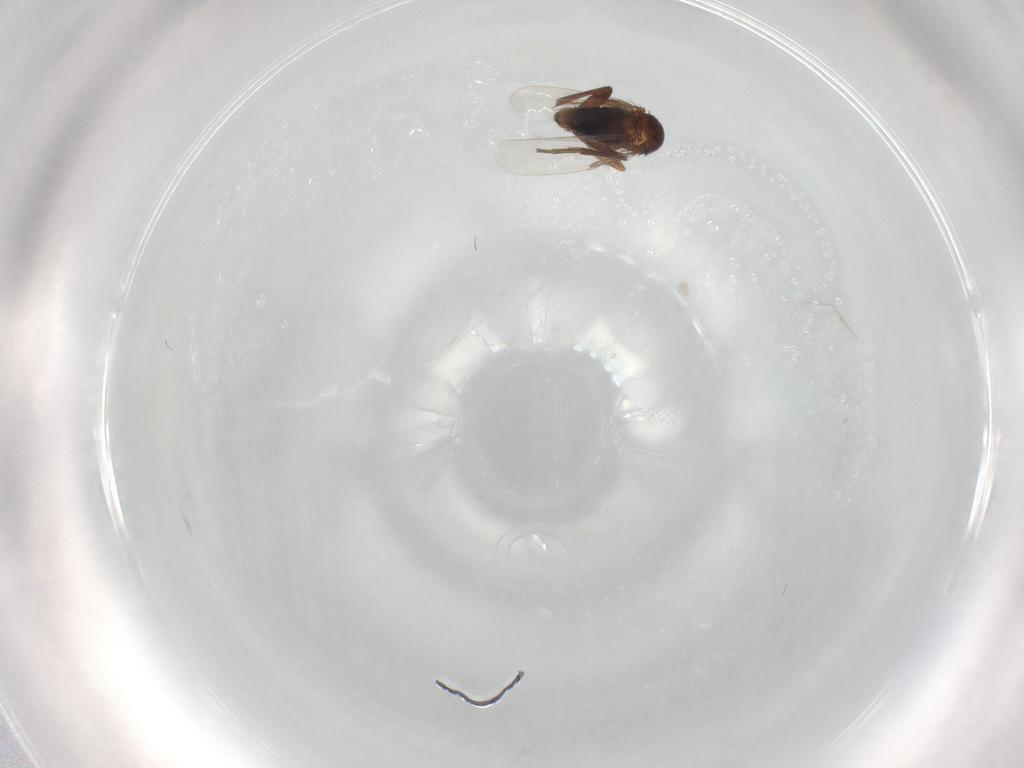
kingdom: Animalia
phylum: Arthropoda
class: Insecta
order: Diptera
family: Phoridae
